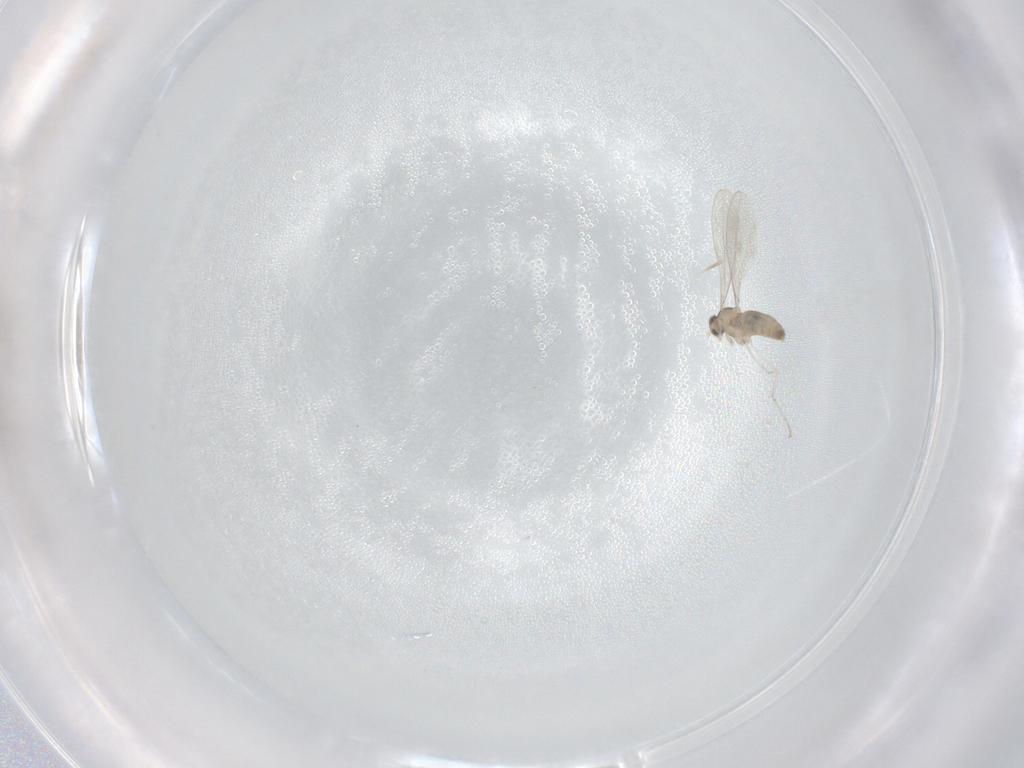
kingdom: Animalia
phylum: Arthropoda
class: Insecta
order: Diptera
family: Cecidomyiidae
